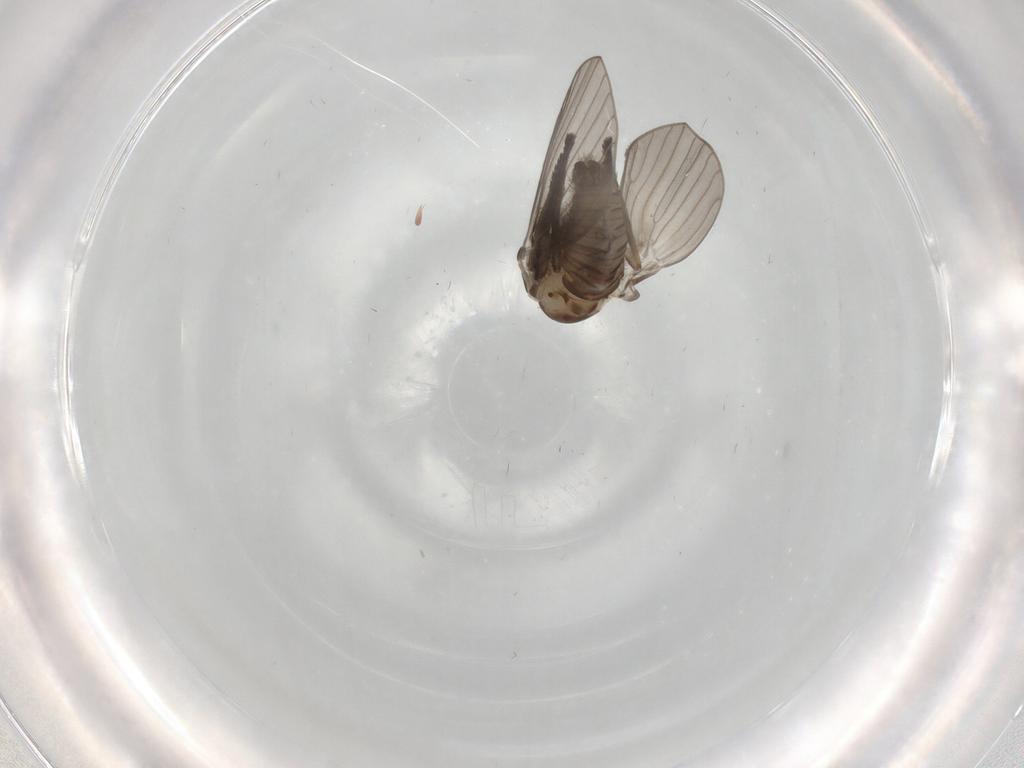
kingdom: Animalia
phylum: Arthropoda
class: Insecta
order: Diptera
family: Psychodidae
